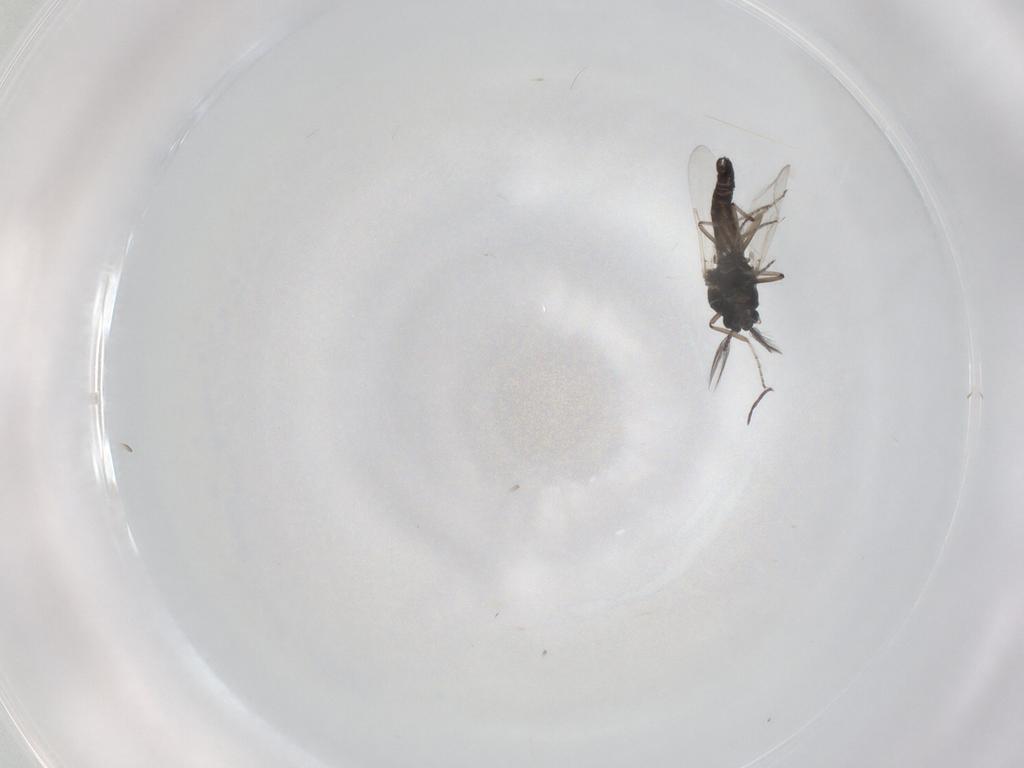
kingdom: Animalia
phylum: Arthropoda
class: Insecta
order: Diptera
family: Ceratopogonidae
